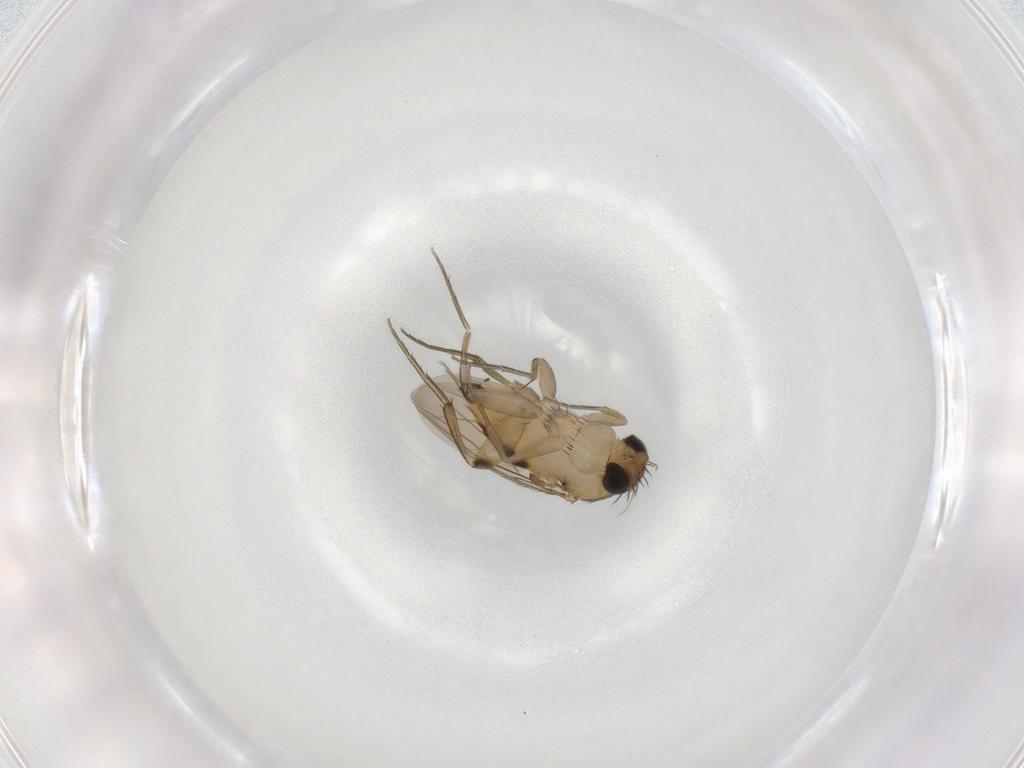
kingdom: Animalia
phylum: Arthropoda
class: Insecta
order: Diptera
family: Phoridae
